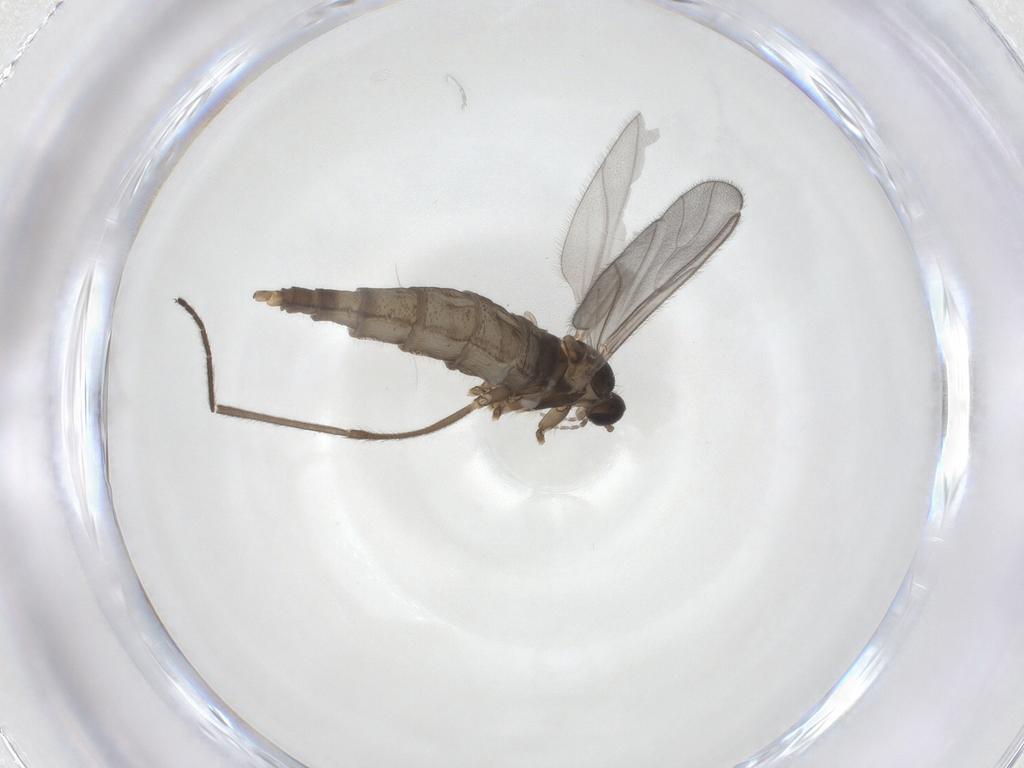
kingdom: Animalia
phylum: Arthropoda
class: Insecta
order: Diptera
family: Cecidomyiidae
